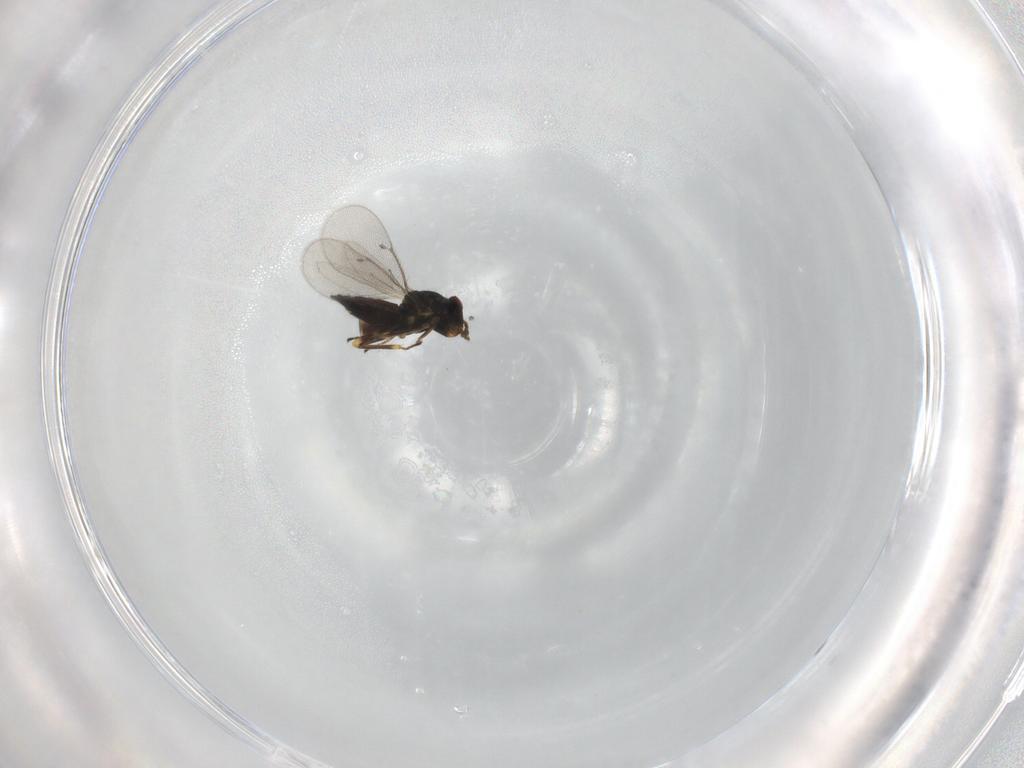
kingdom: Animalia
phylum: Arthropoda
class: Insecta
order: Hymenoptera
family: Eulophidae
